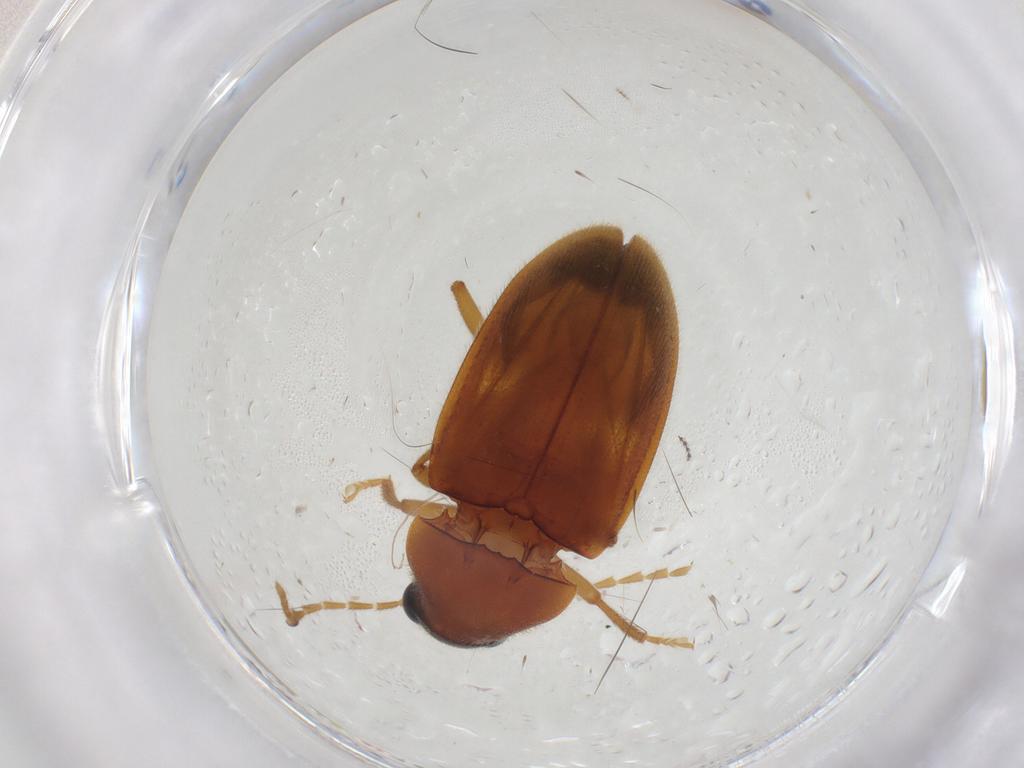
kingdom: Animalia
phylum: Arthropoda
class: Insecta
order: Coleoptera
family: Ptilodactylidae
